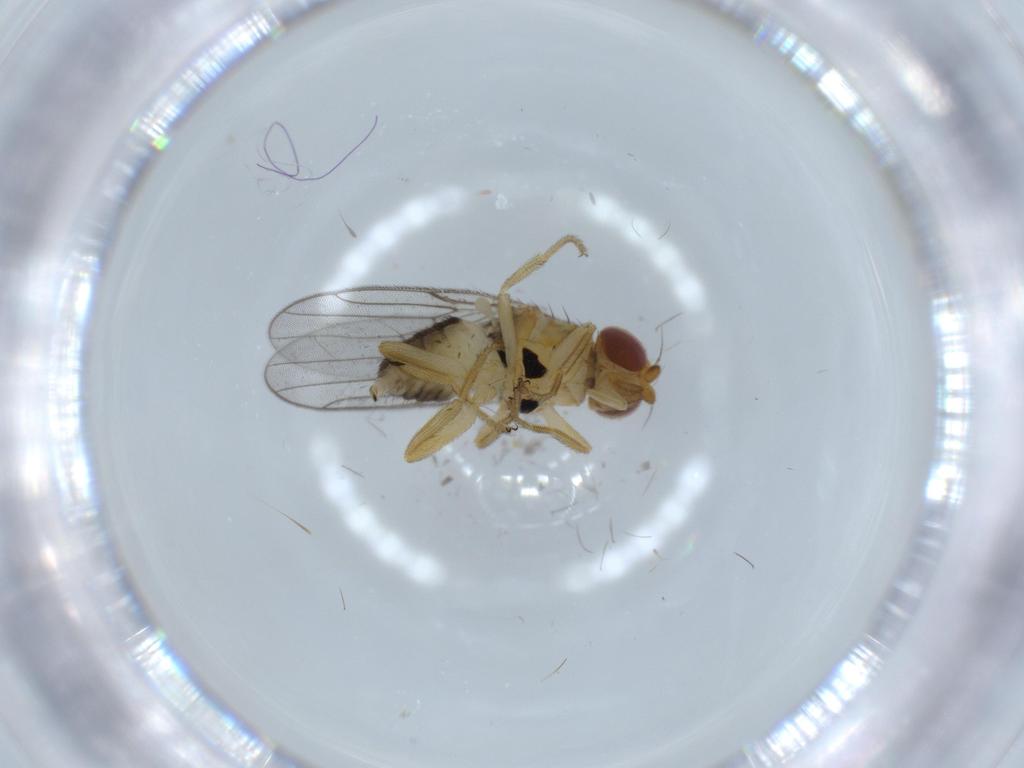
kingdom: Animalia
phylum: Arthropoda
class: Insecta
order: Diptera
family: Chloropidae
